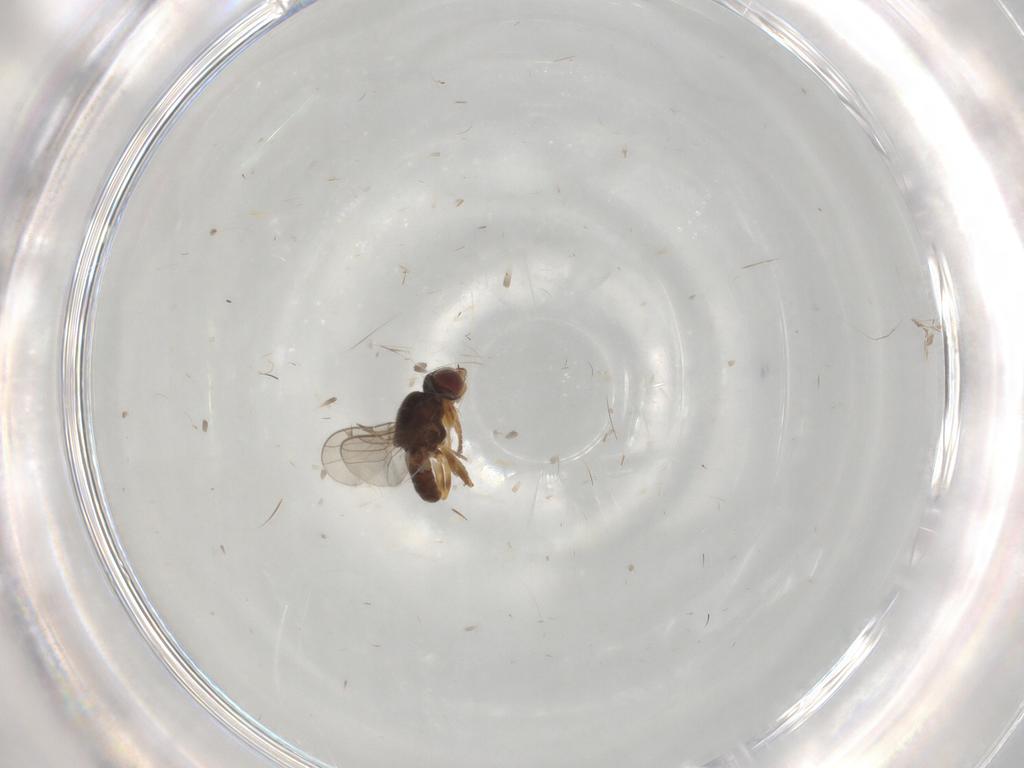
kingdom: Animalia
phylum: Arthropoda
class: Insecta
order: Diptera
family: Chloropidae
